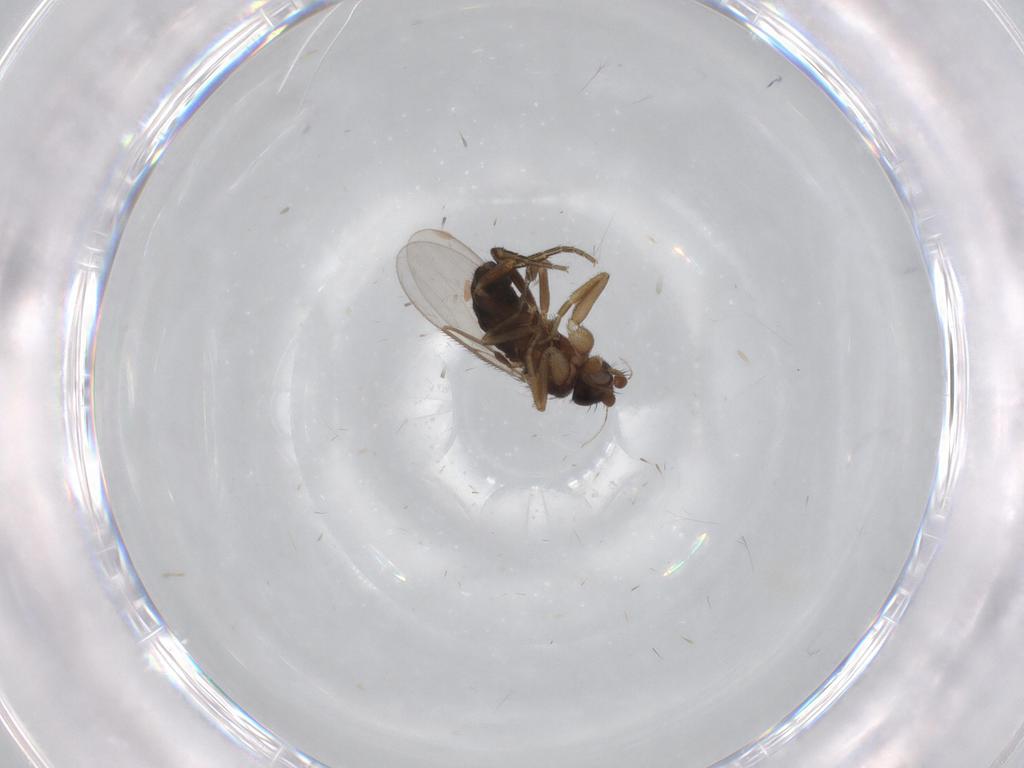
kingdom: Animalia
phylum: Arthropoda
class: Insecta
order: Diptera
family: Phoridae
